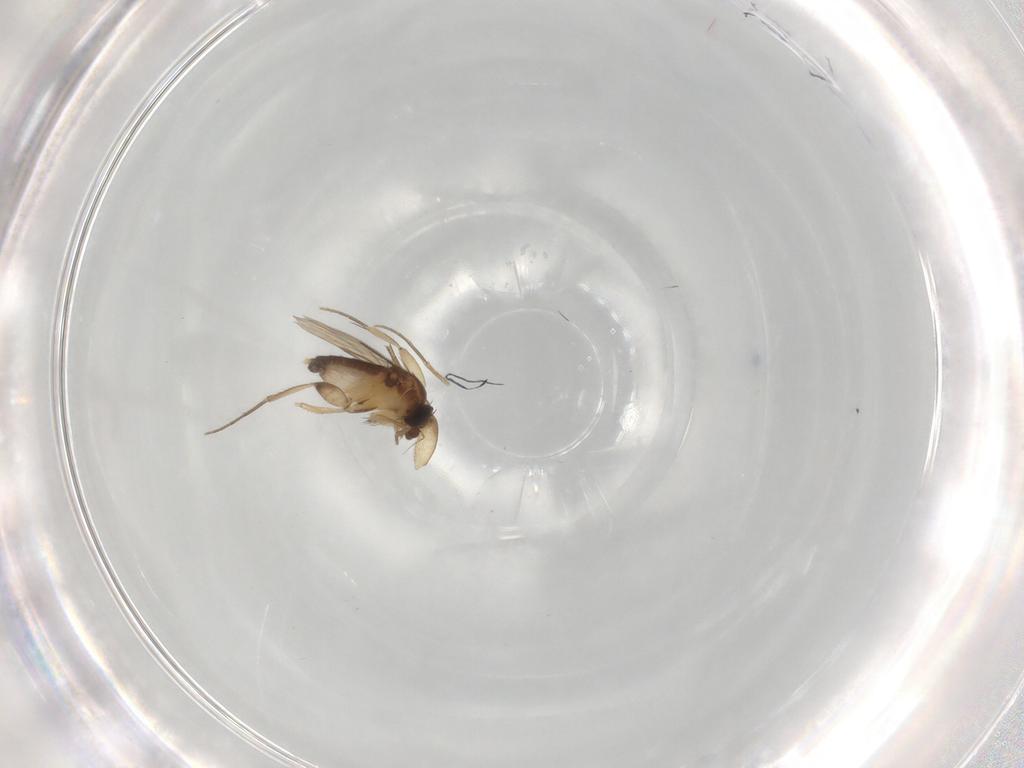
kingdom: Animalia
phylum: Arthropoda
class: Insecta
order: Diptera
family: Phoridae
